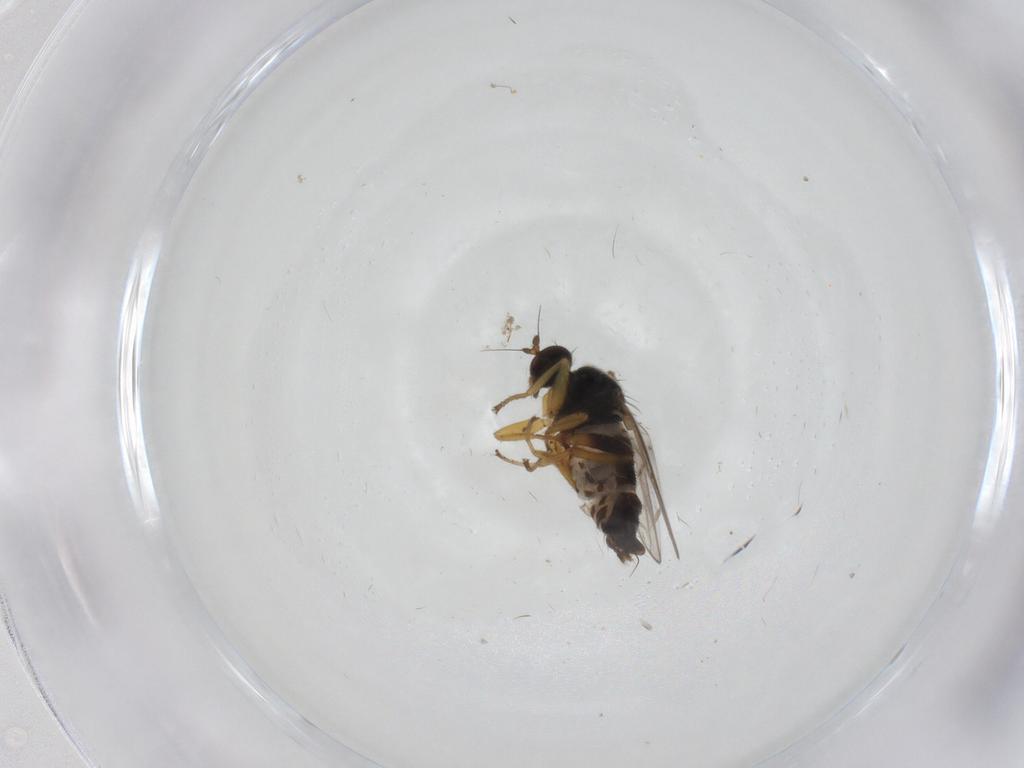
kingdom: Animalia
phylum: Arthropoda
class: Insecta
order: Diptera
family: Hybotidae
